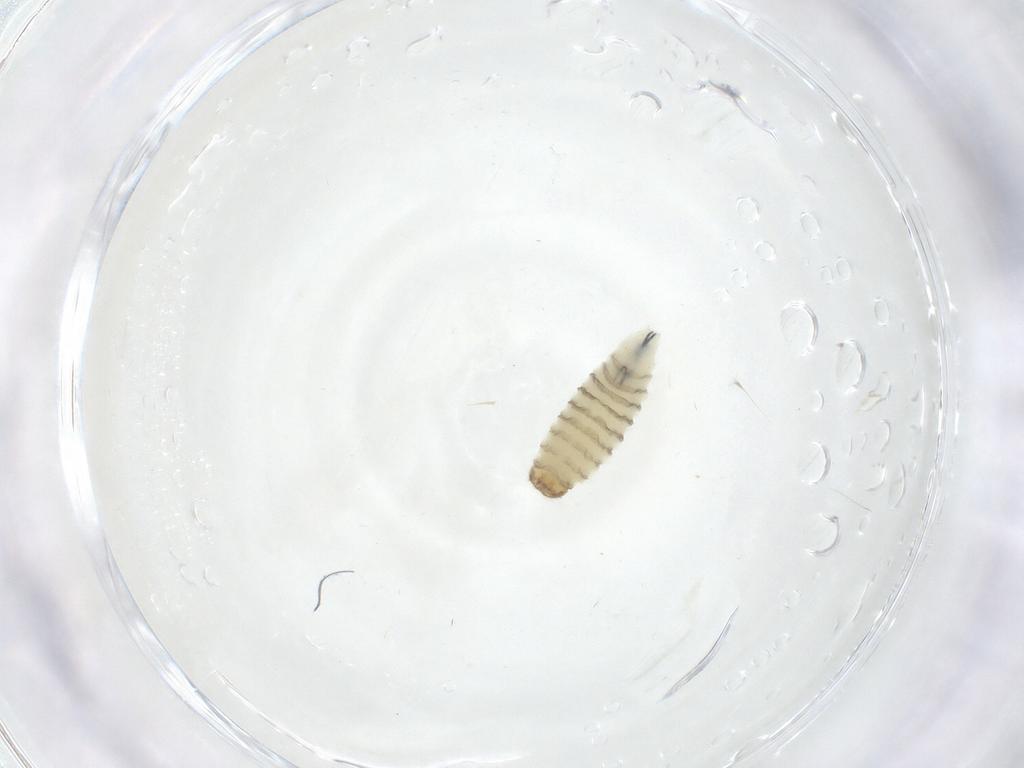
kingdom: Animalia
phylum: Arthropoda
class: Insecta
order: Diptera
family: Chironomidae
